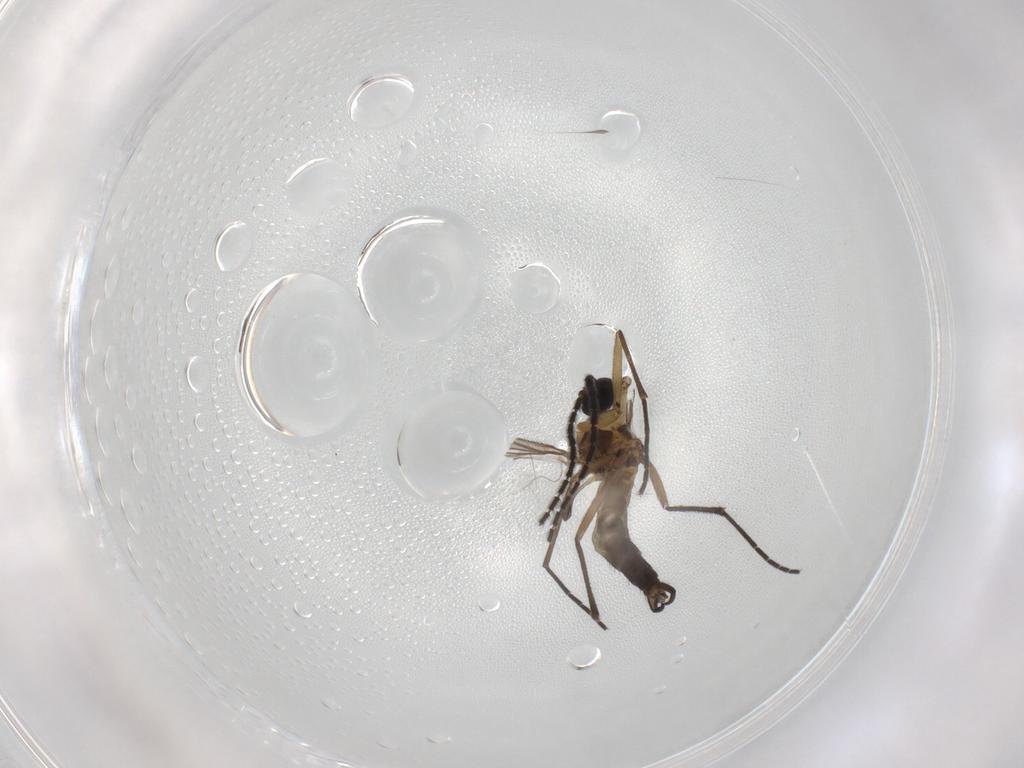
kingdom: Animalia
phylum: Arthropoda
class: Insecta
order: Diptera
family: Sciaridae
